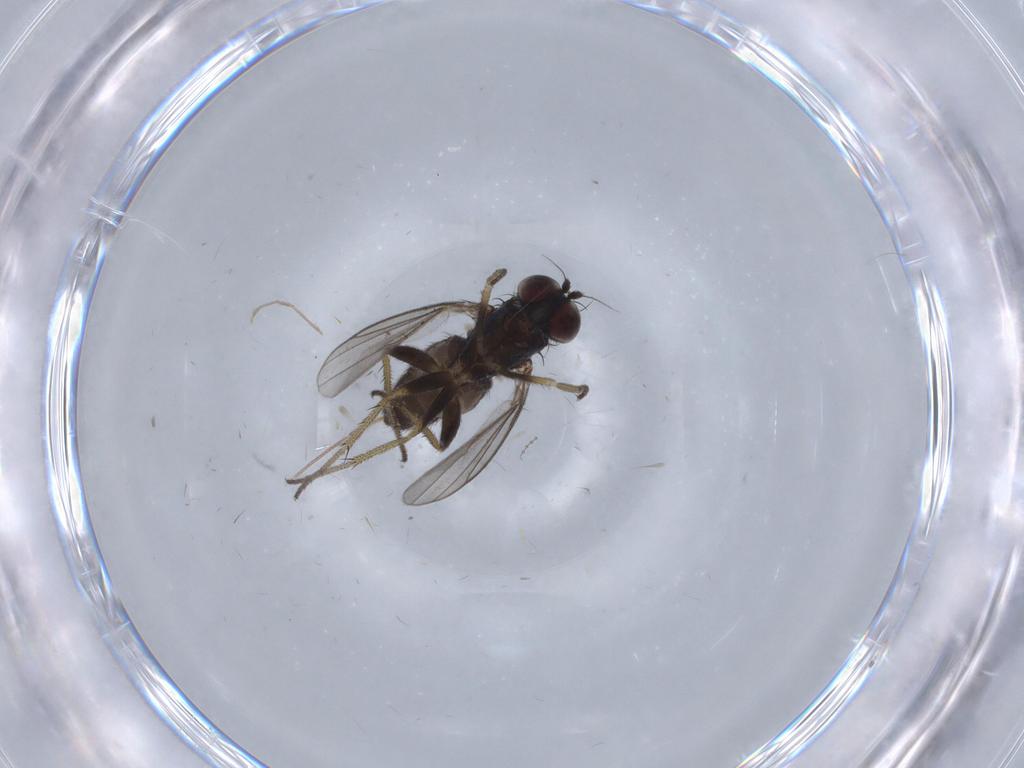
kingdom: Animalia
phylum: Arthropoda
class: Insecta
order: Diptera
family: Dolichopodidae
